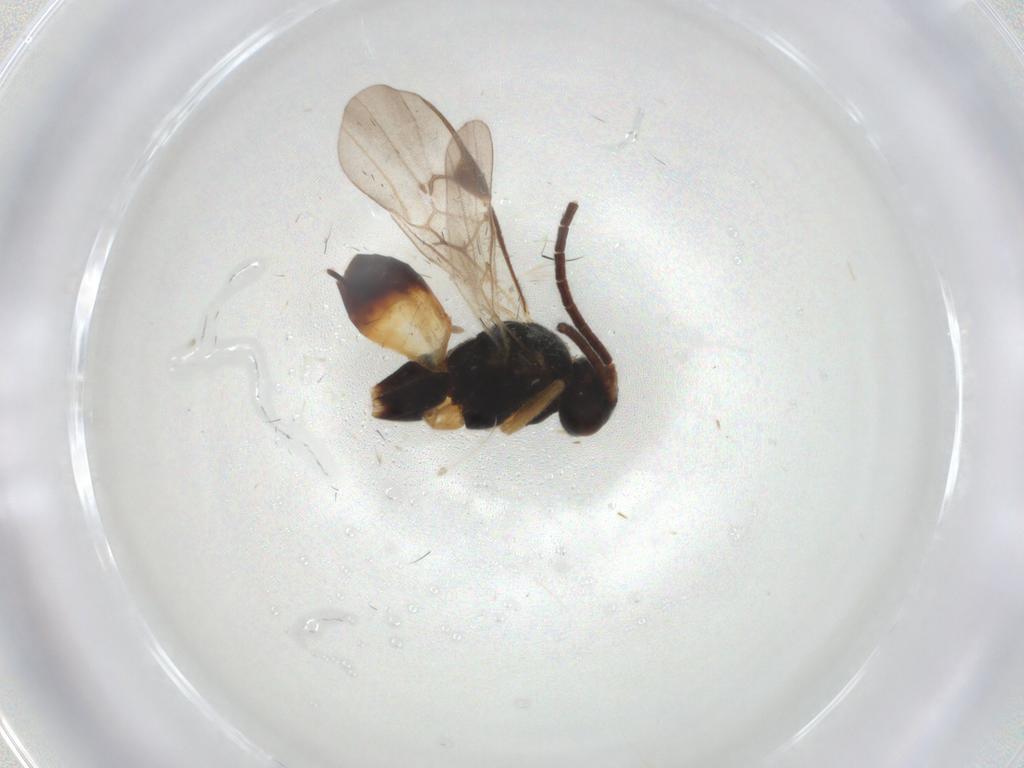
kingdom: Animalia
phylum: Arthropoda
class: Insecta
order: Hymenoptera
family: Braconidae
